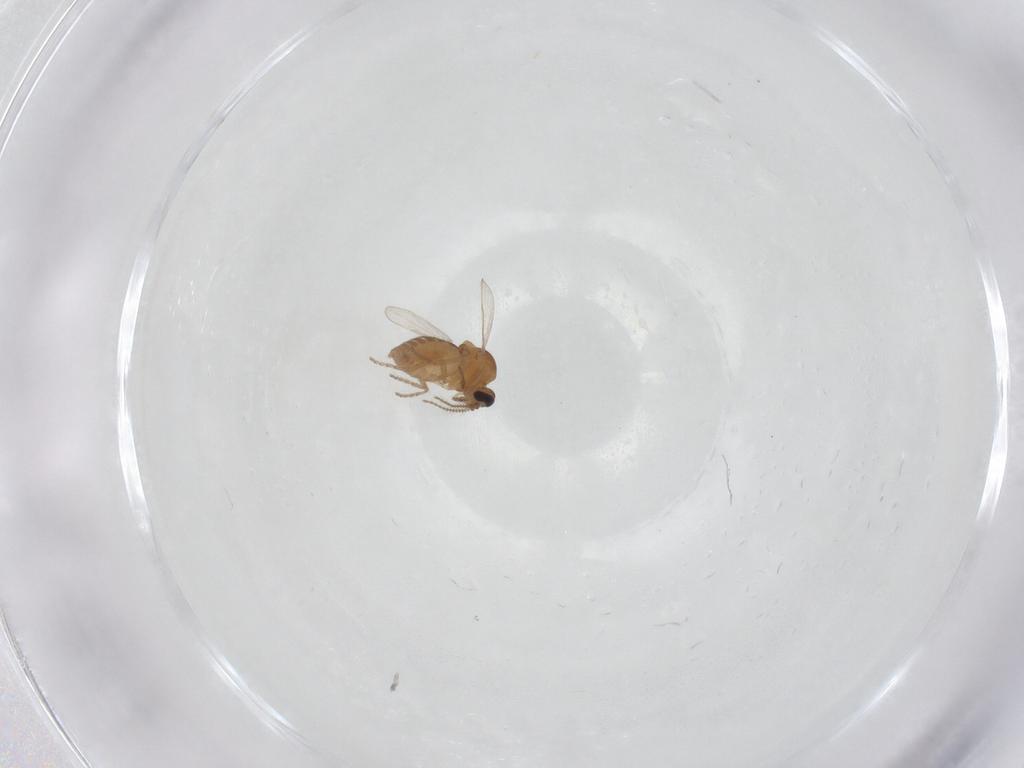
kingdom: Animalia
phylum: Arthropoda
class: Insecta
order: Diptera
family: Ceratopogonidae
